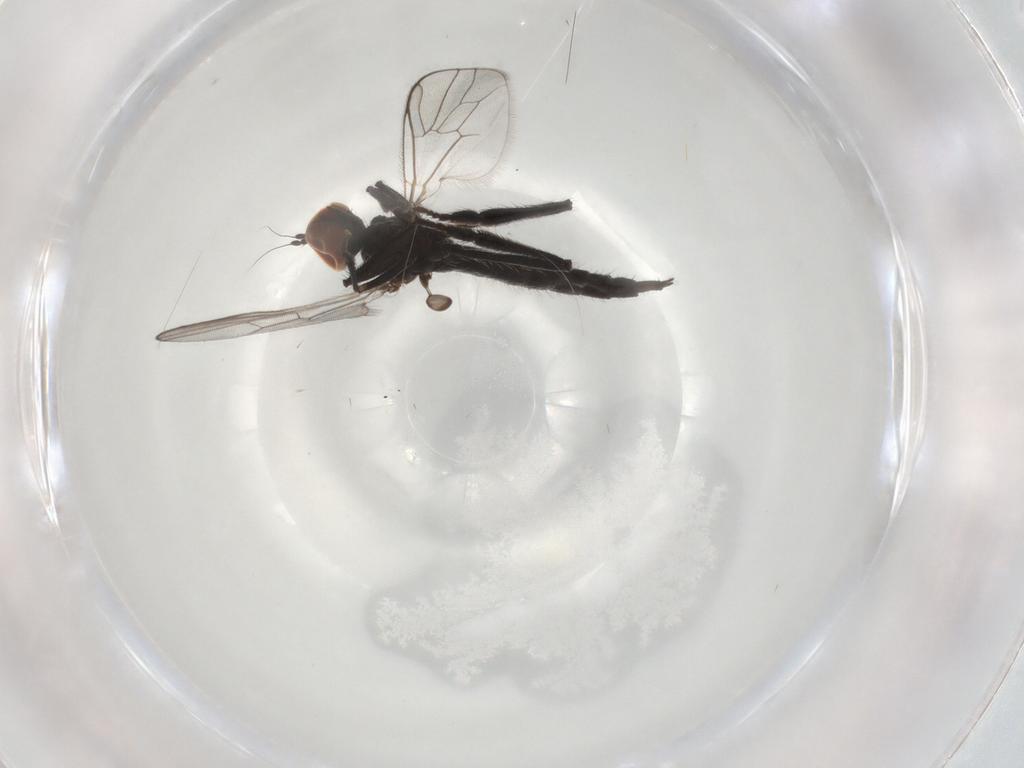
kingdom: Animalia
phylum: Arthropoda
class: Insecta
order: Diptera
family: Hybotidae
